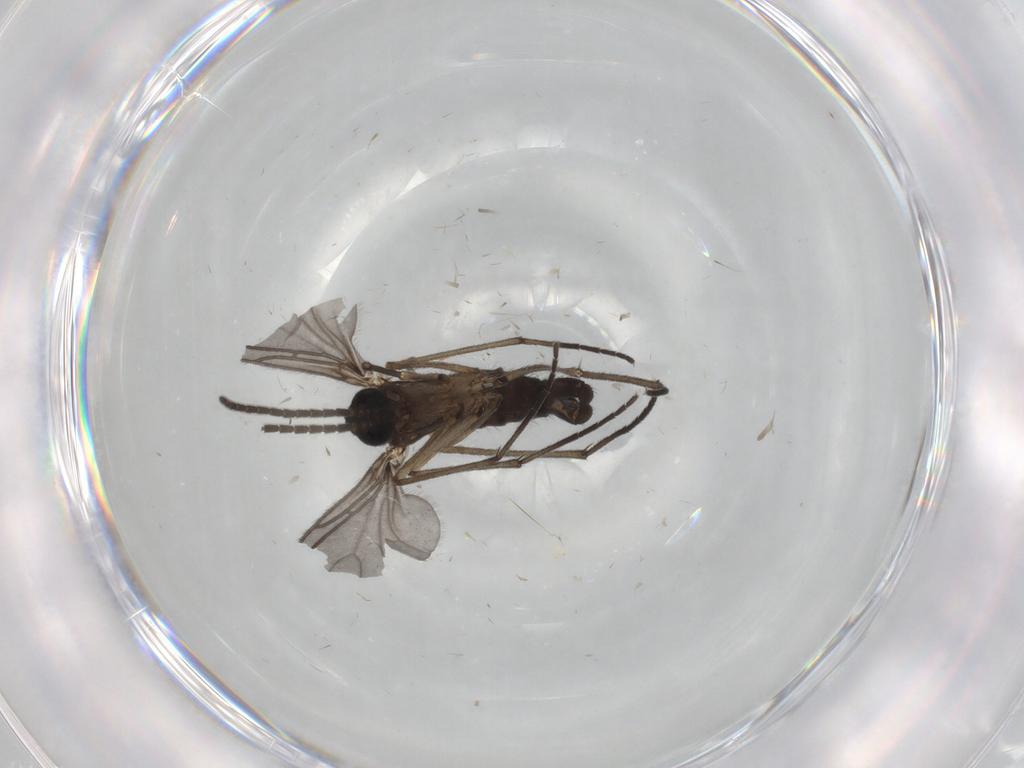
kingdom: Animalia
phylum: Arthropoda
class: Insecta
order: Diptera
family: Sciaridae
